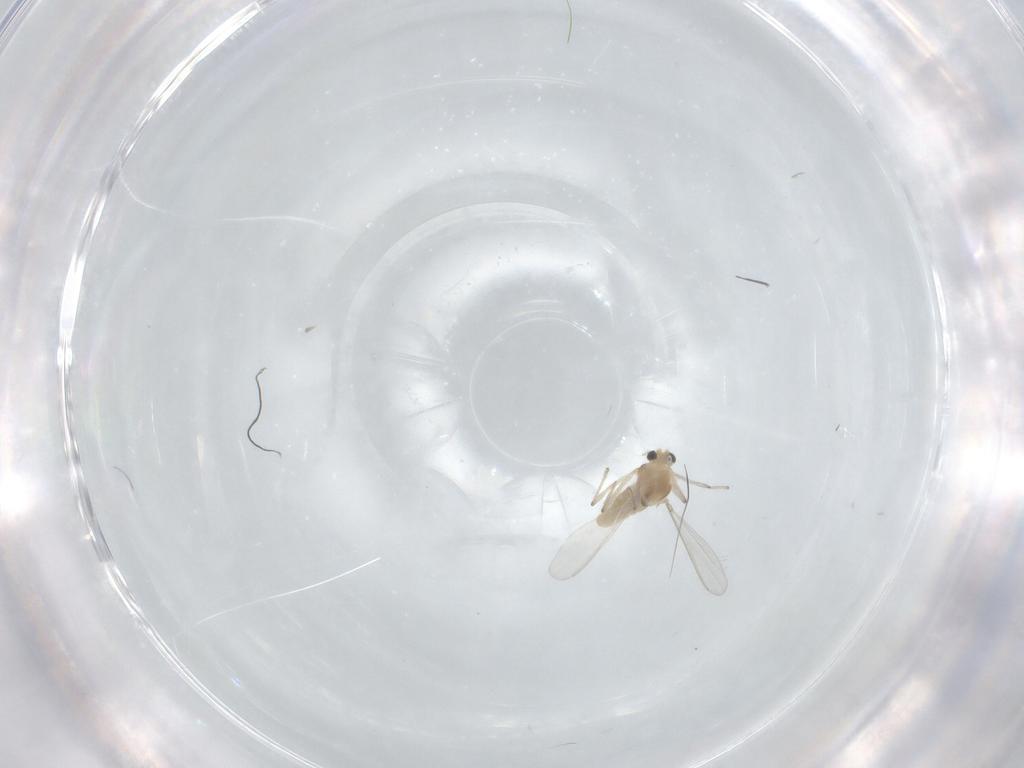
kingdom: Animalia
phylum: Arthropoda
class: Insecta
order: Diptera
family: Chironomidae
